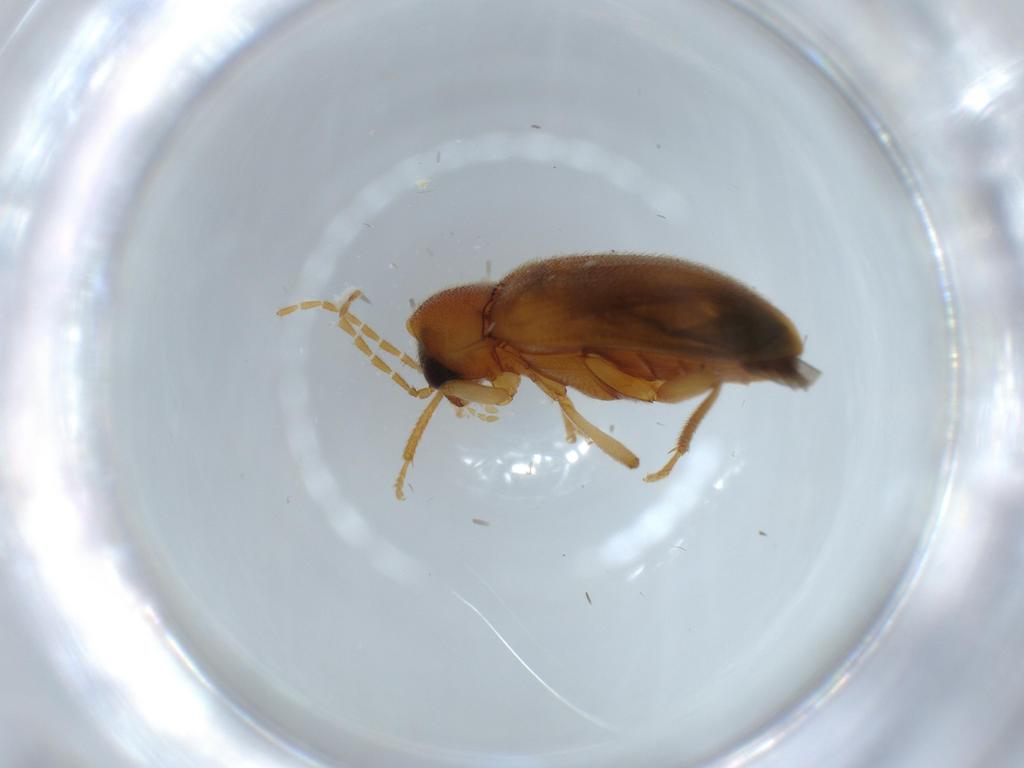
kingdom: Animalia
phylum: Arthropoda
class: Insecta
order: Coleoptera
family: Ptilodactylidae
